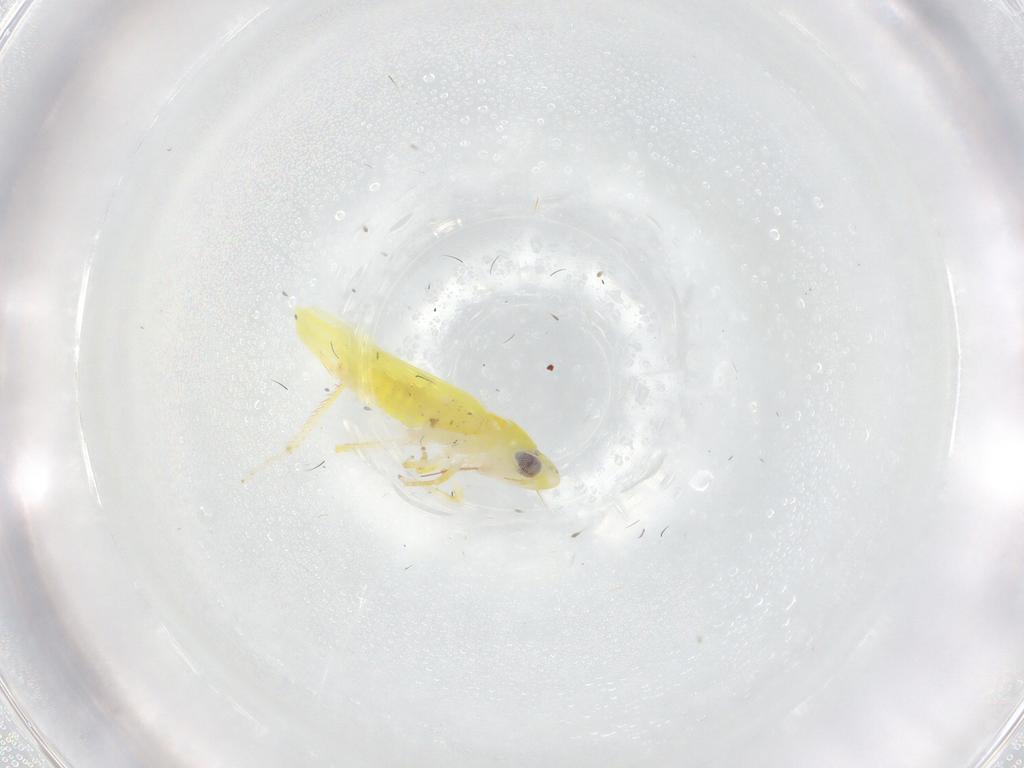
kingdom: Animalia
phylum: Arthropoda
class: Insecta
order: Hemiptera
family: Cicadellidae
